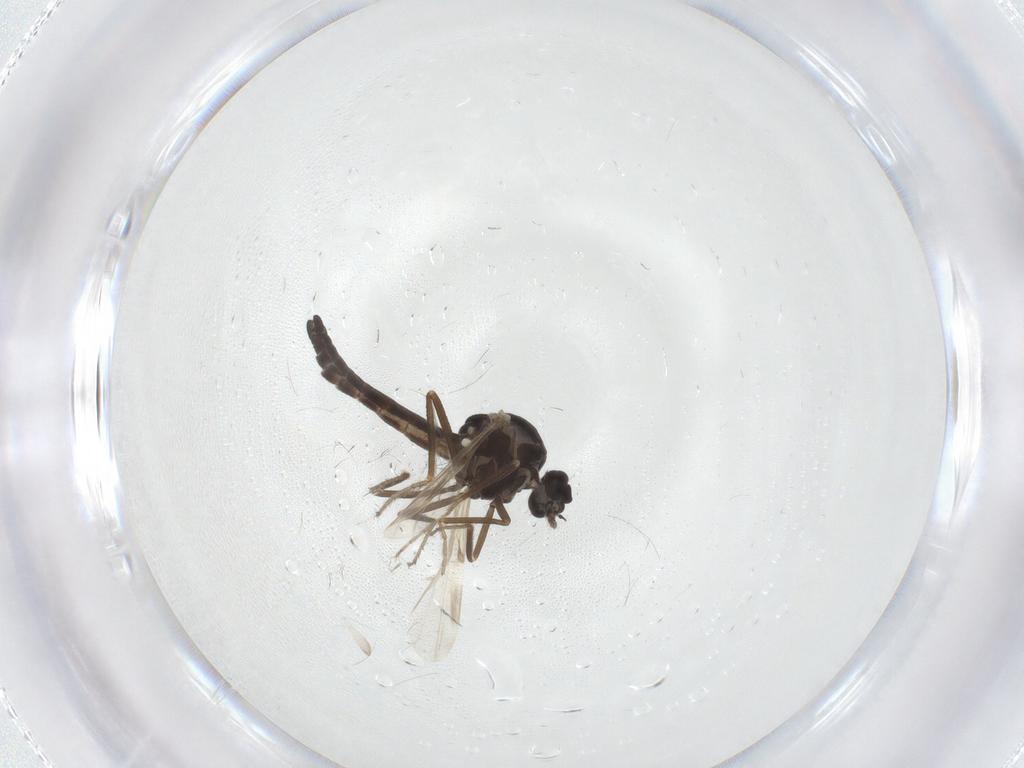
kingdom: Animalia
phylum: Arthropoda
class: Insecta
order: Diptera
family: Ceratopogonidae
